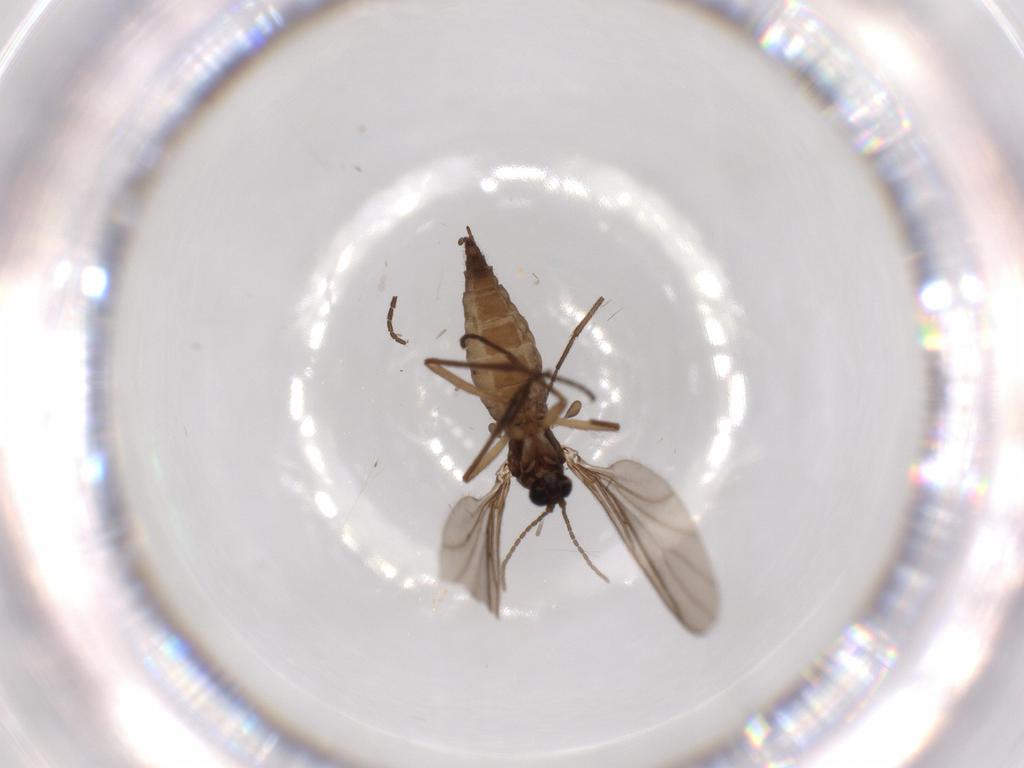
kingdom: Animalia
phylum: Arthropoda
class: Insecta
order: Diptera
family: Sciaridae
